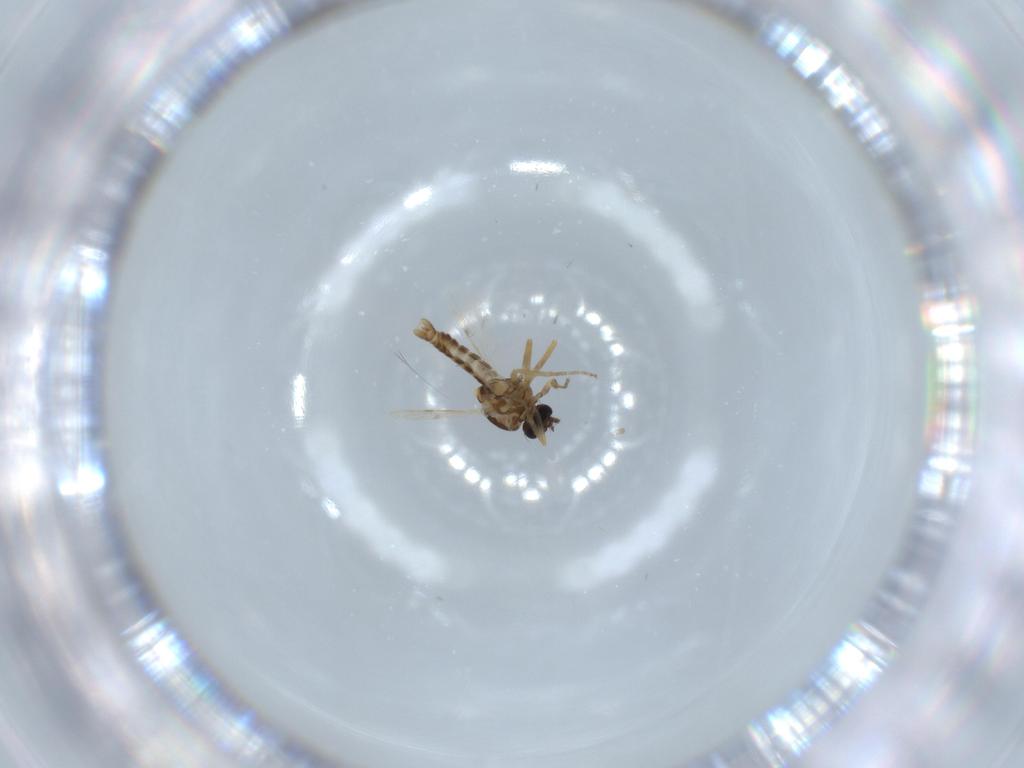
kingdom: Animalia
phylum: Arthropoda
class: Insecta
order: Diptera
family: Ceratopogonidae
